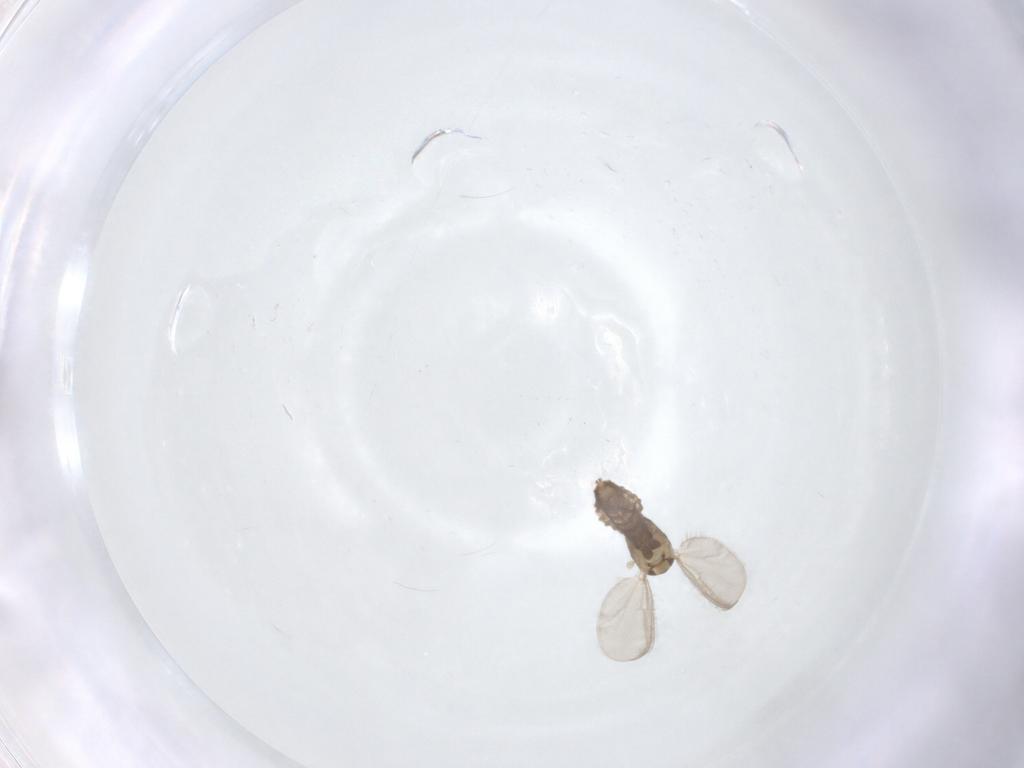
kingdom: Animalia
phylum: Arthropoda
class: Insecta
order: Diptera
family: Chironomidae
